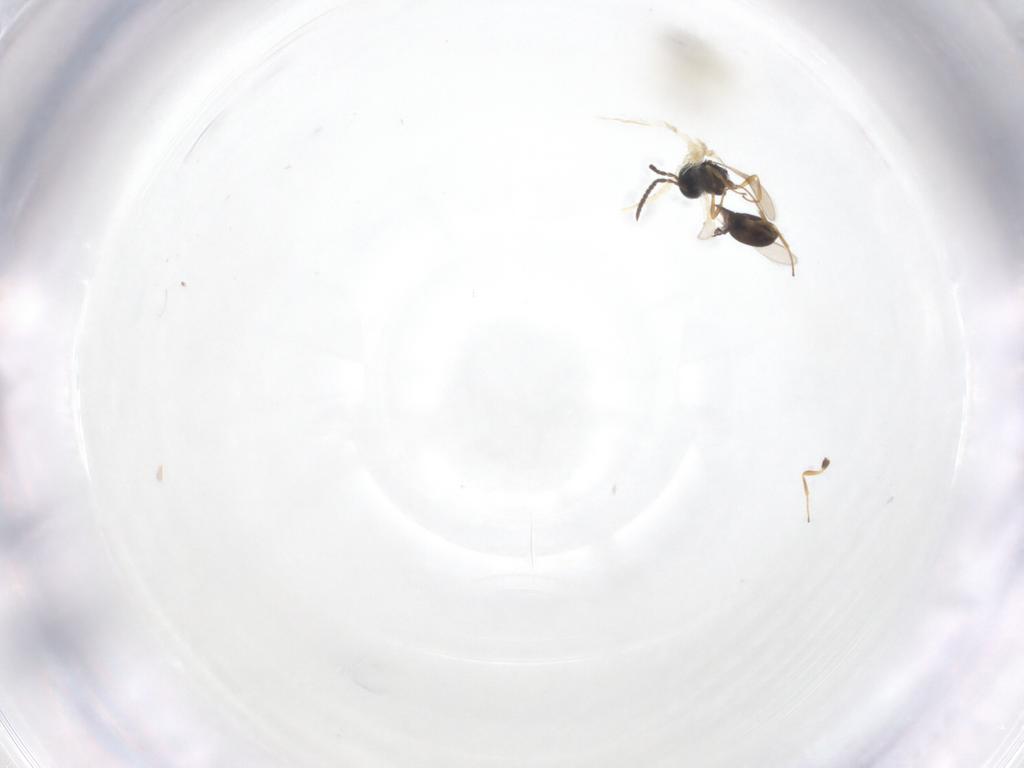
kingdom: Animalia
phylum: Arthropoda
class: Insecta
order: Hymenoptera
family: Scelionidae
